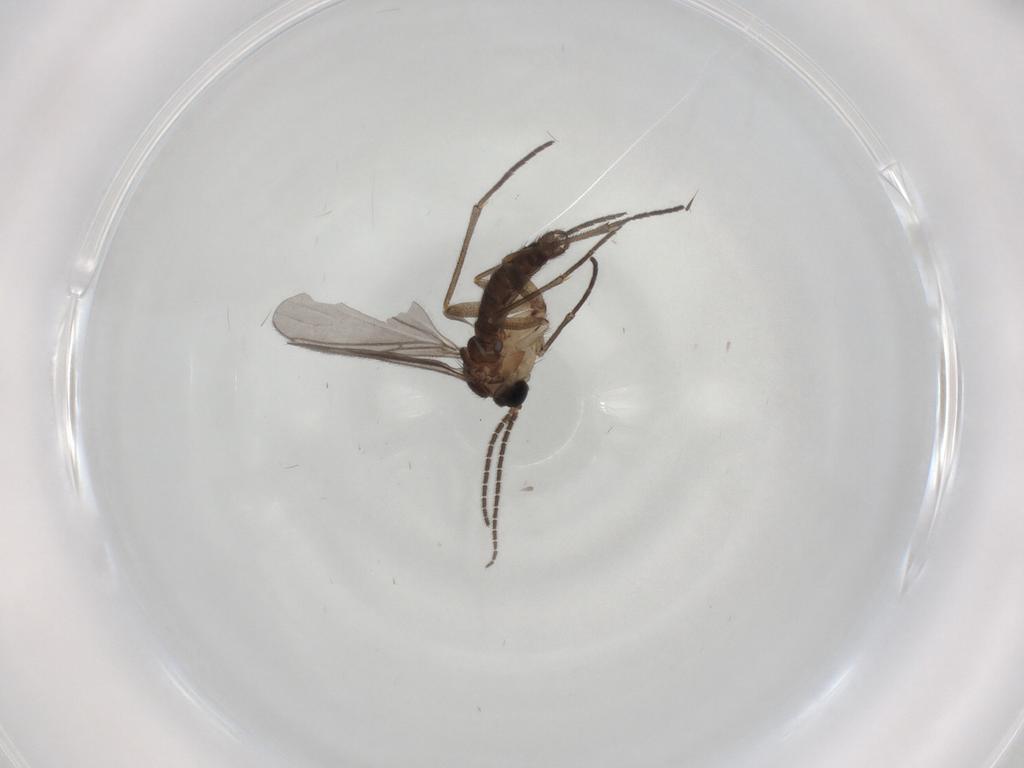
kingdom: Animalia
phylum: Arthropoda
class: Insecta
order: Diptera
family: Sciaridae
